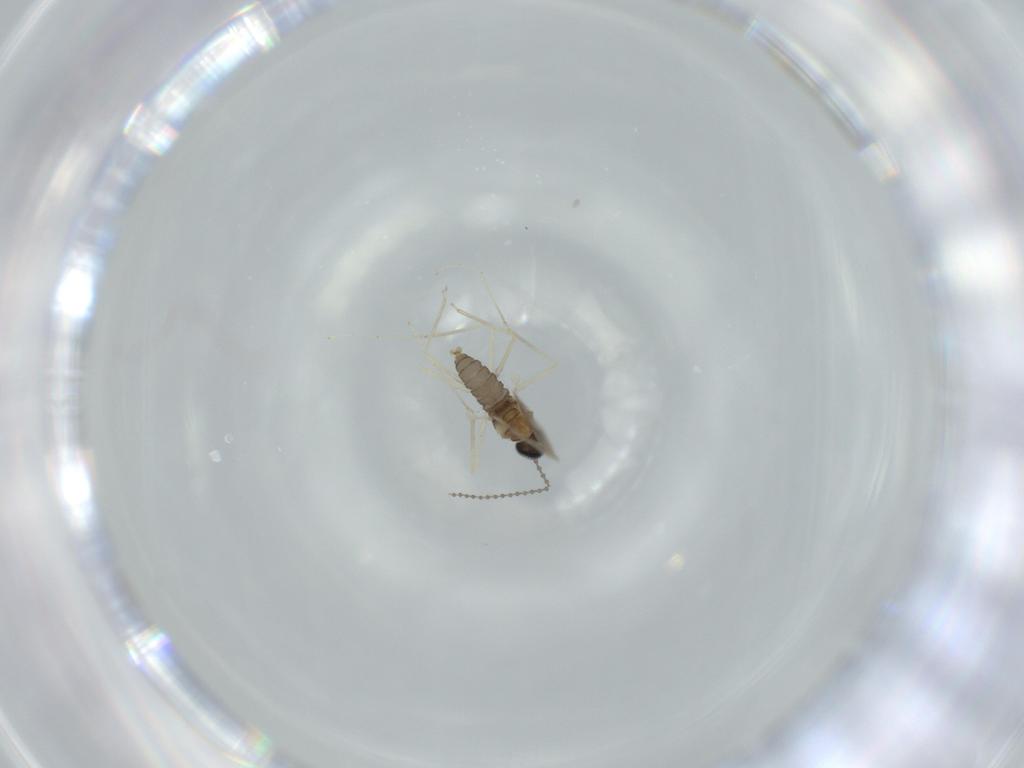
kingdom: Animalia
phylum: Arthropoda
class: Insecta
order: Diptera
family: Cecidomyiidae
